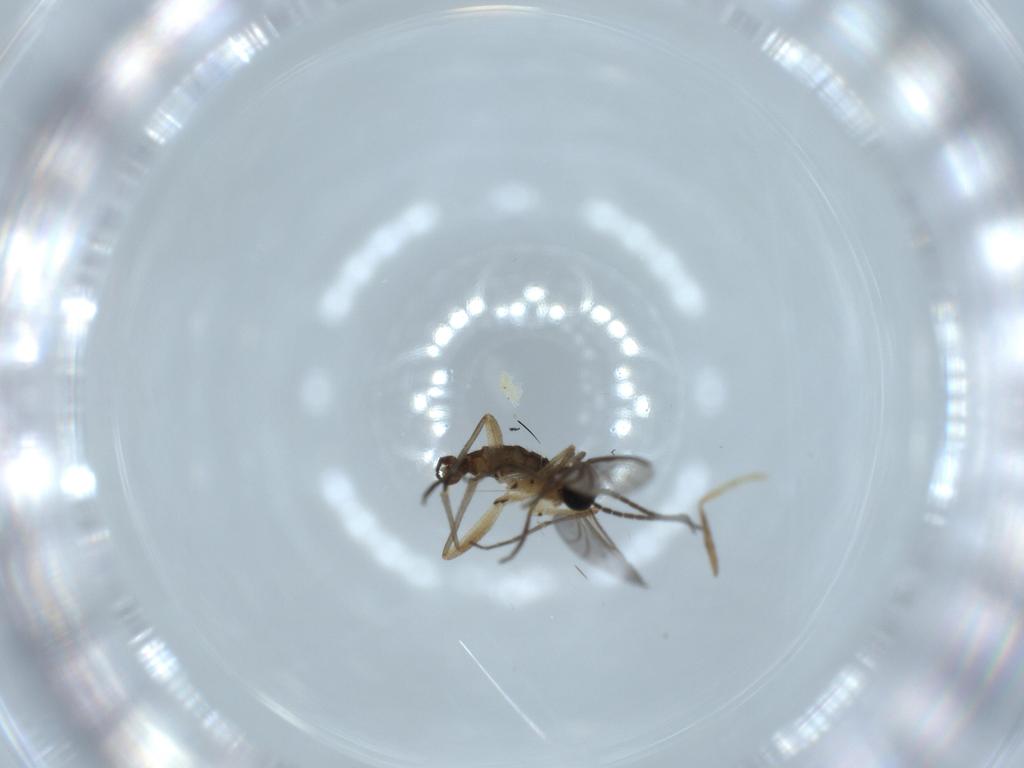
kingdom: Animalia
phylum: Arthropoda
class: Insecta
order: Diptera
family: Sciaridae
